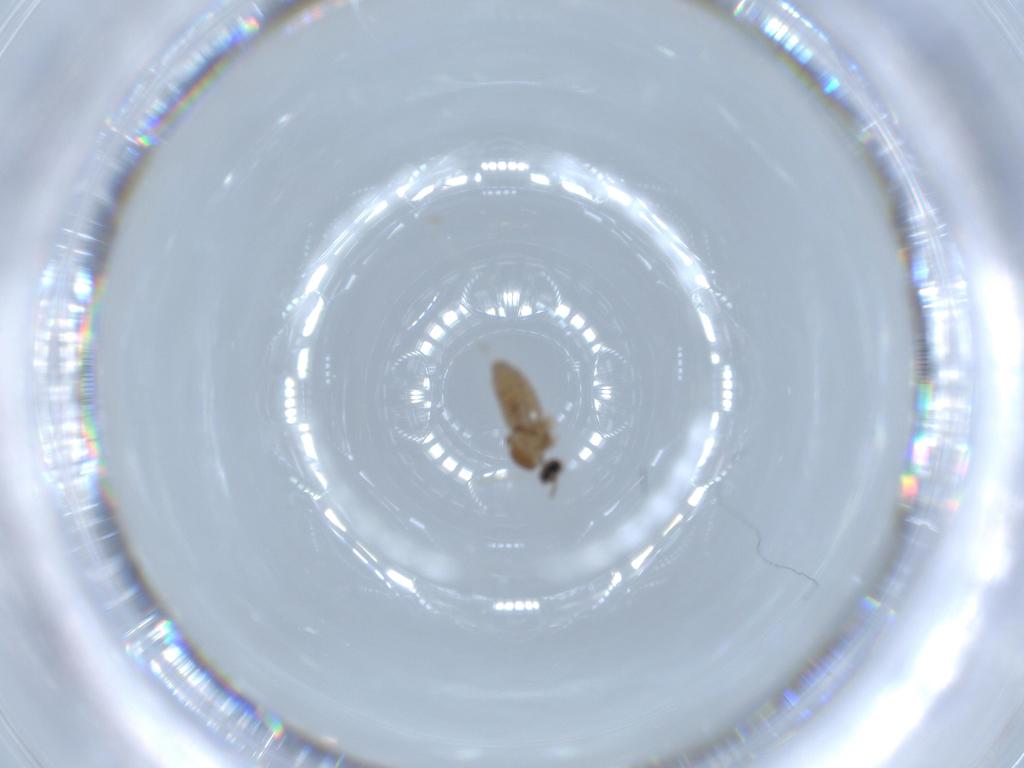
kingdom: Animalia
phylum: Arthropoda
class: Insecta
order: Diptera
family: Cecidomyiidae
